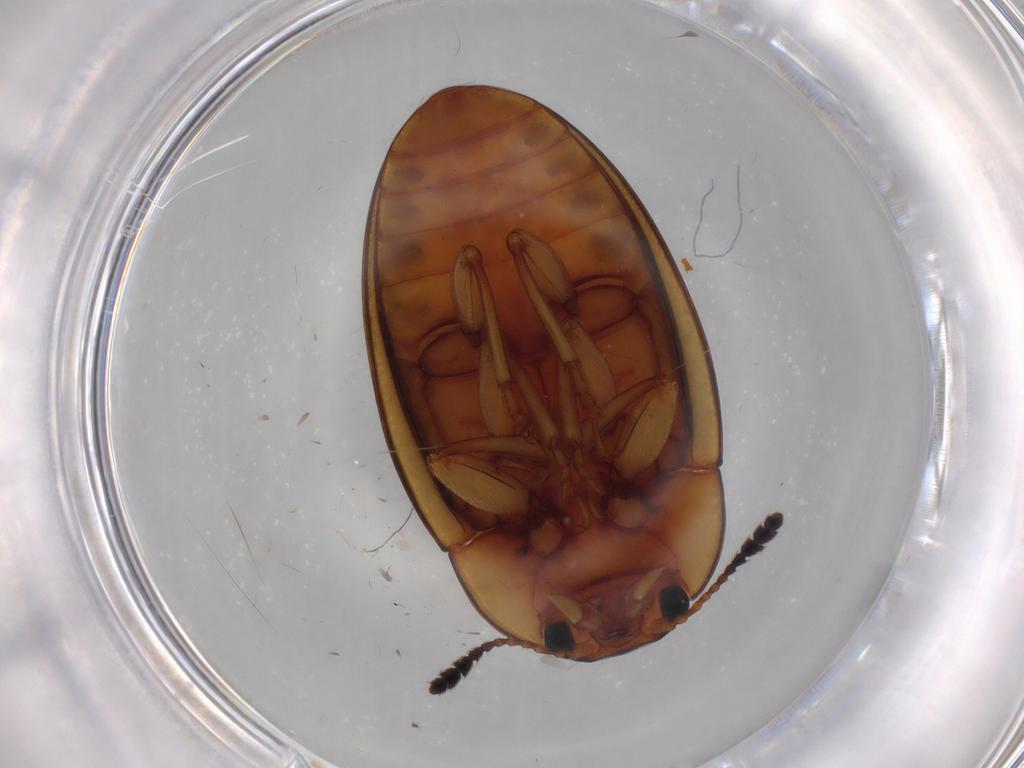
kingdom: Animalia
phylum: Arthropoda
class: Insecta
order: Coleoptera
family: Erotylidae
